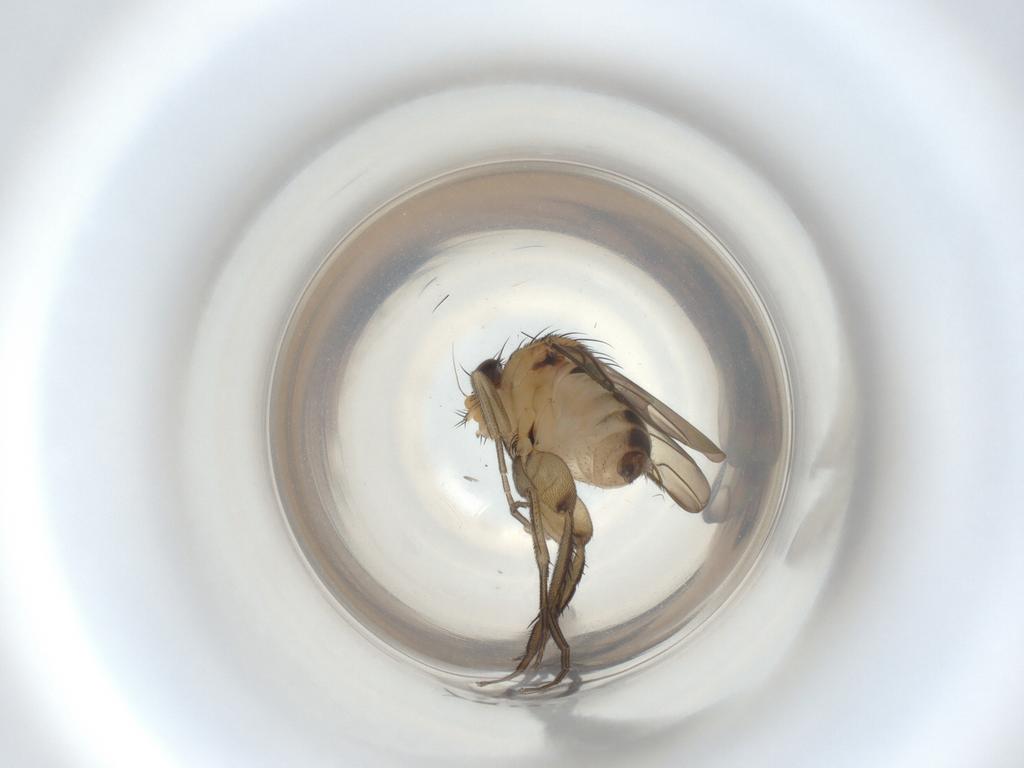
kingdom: Animalia
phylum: Arthropoda
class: Insecta
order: Diptera
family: Phoridae
